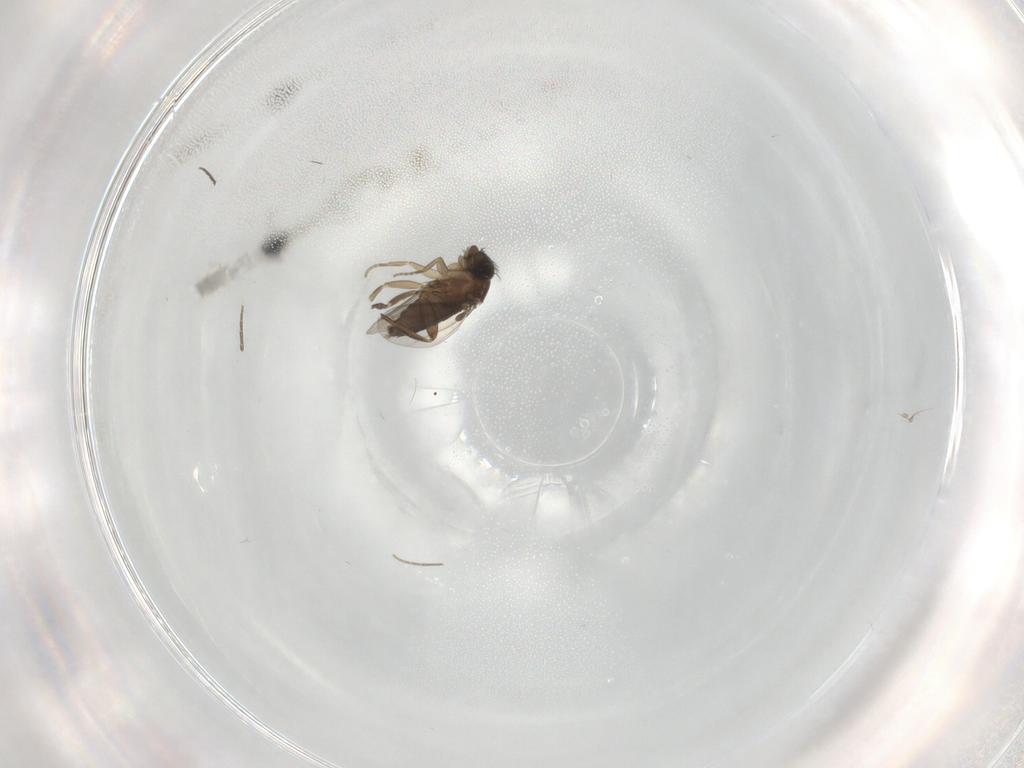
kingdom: Animalia
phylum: Arthropoda
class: Insecta
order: Diptera
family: Phoridae
